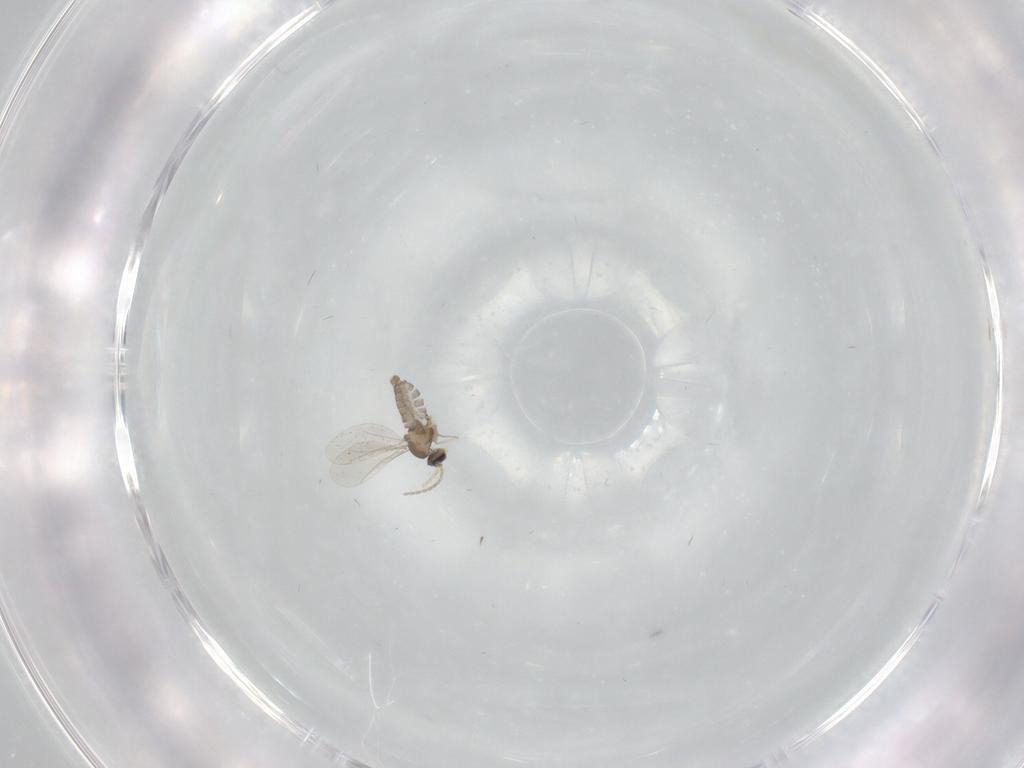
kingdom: Animalia
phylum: Arthropoda
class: Insecta
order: Diptera
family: Cecidomyiidae
